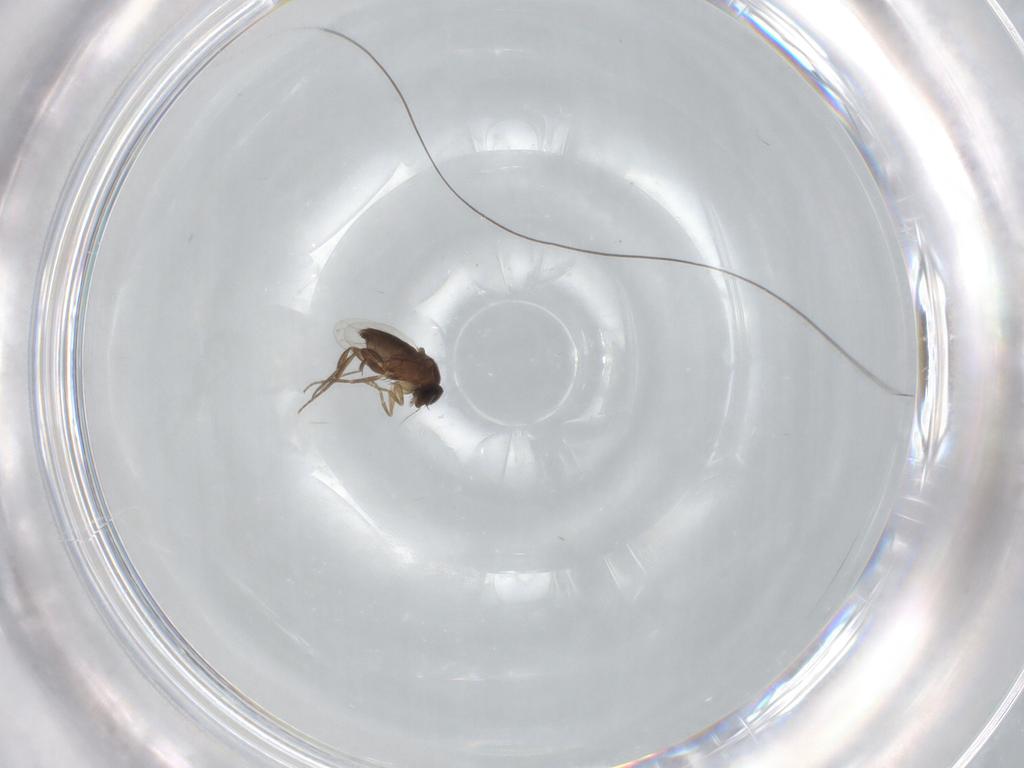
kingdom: Animalia
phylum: Arthropoda
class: Insecta
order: Diptera
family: Phoridae
